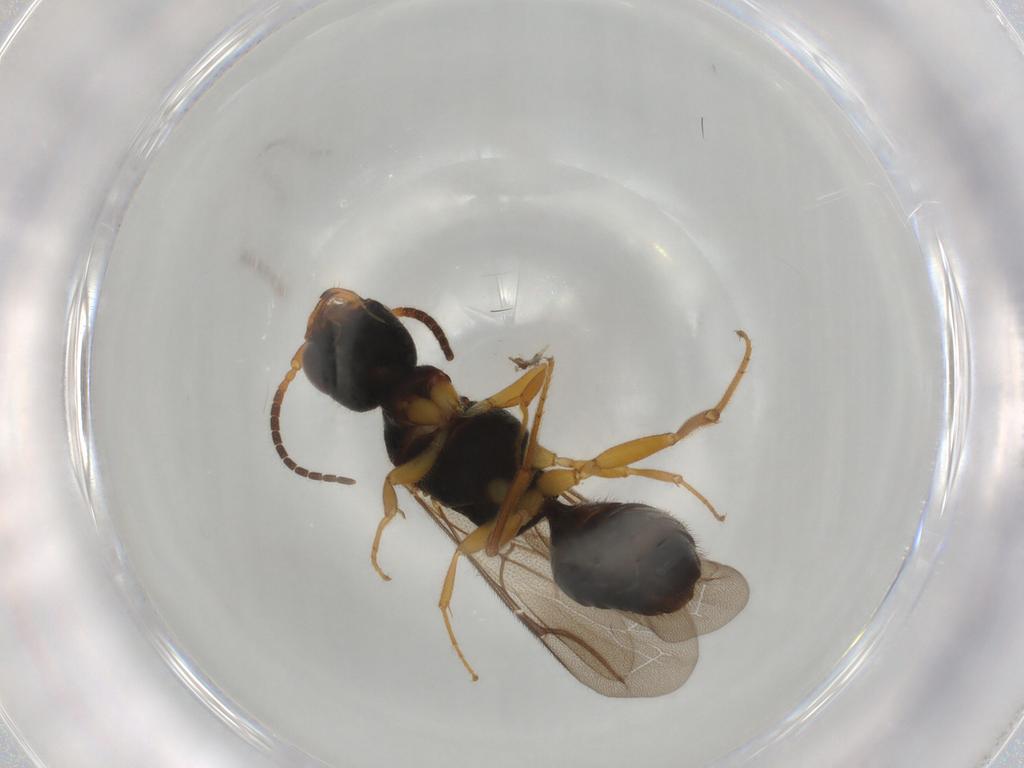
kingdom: Animalia
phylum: Arthropoda
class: Insecta
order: Hymenoptera
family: Bethylidae
